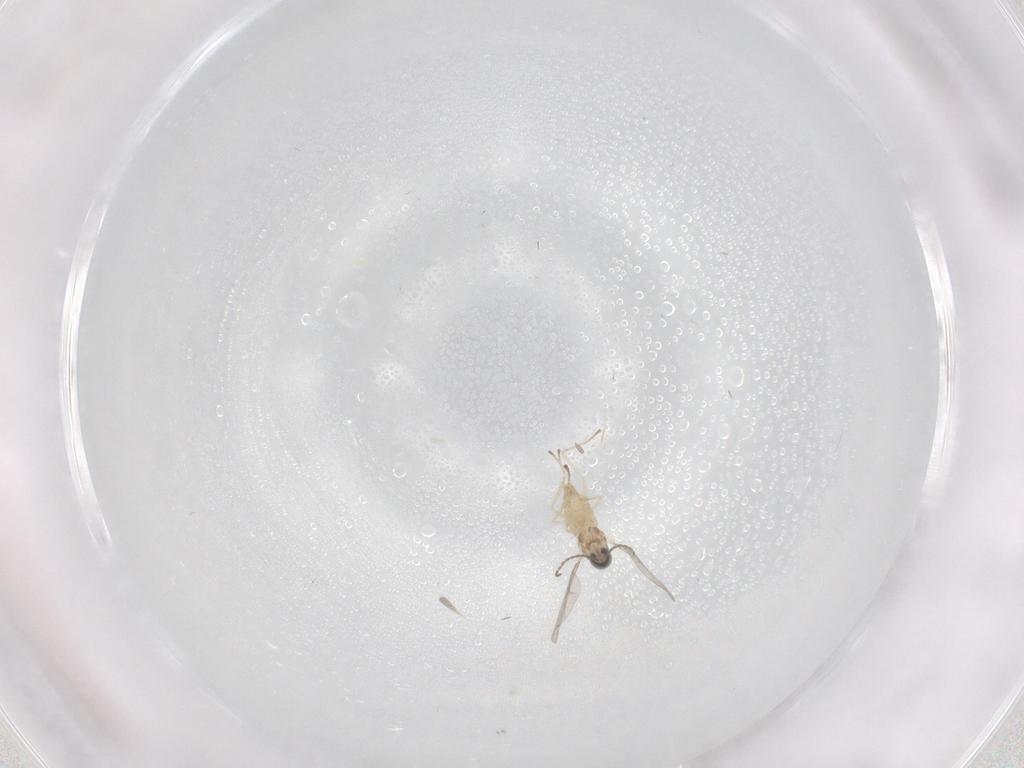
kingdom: Animalia
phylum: Arthropoda
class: Insecta
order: Diptera
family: Cecidomyiidae
